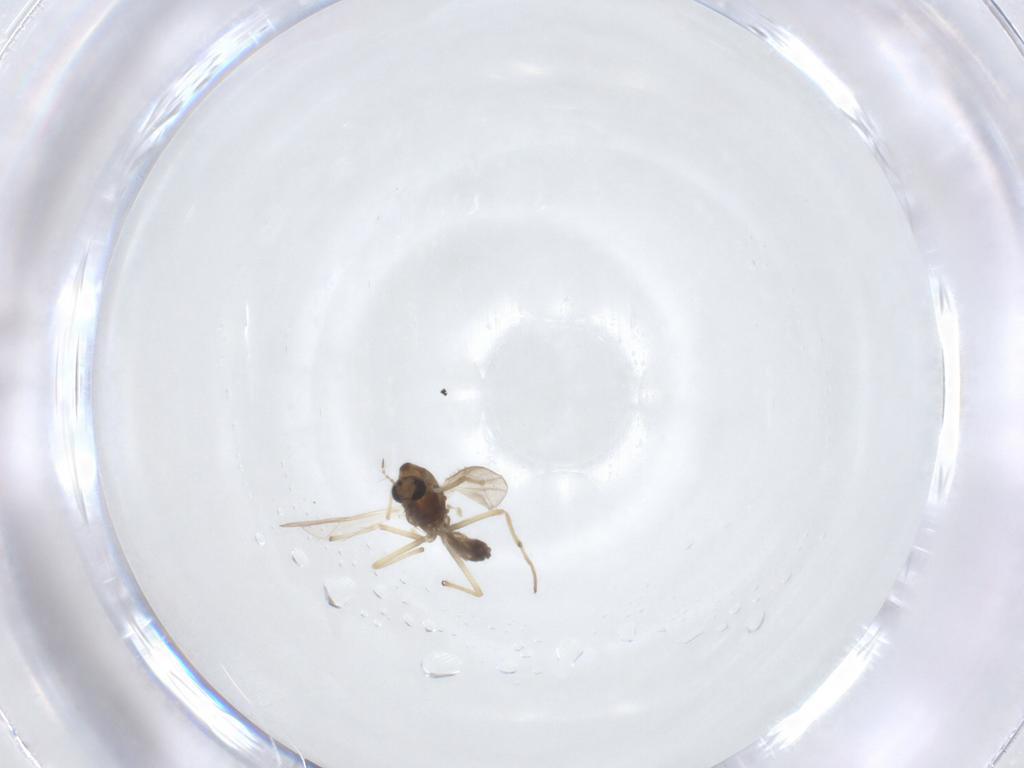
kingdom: Animalia
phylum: Arthropoda
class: Insecta
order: Diptera
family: Chironomidae
